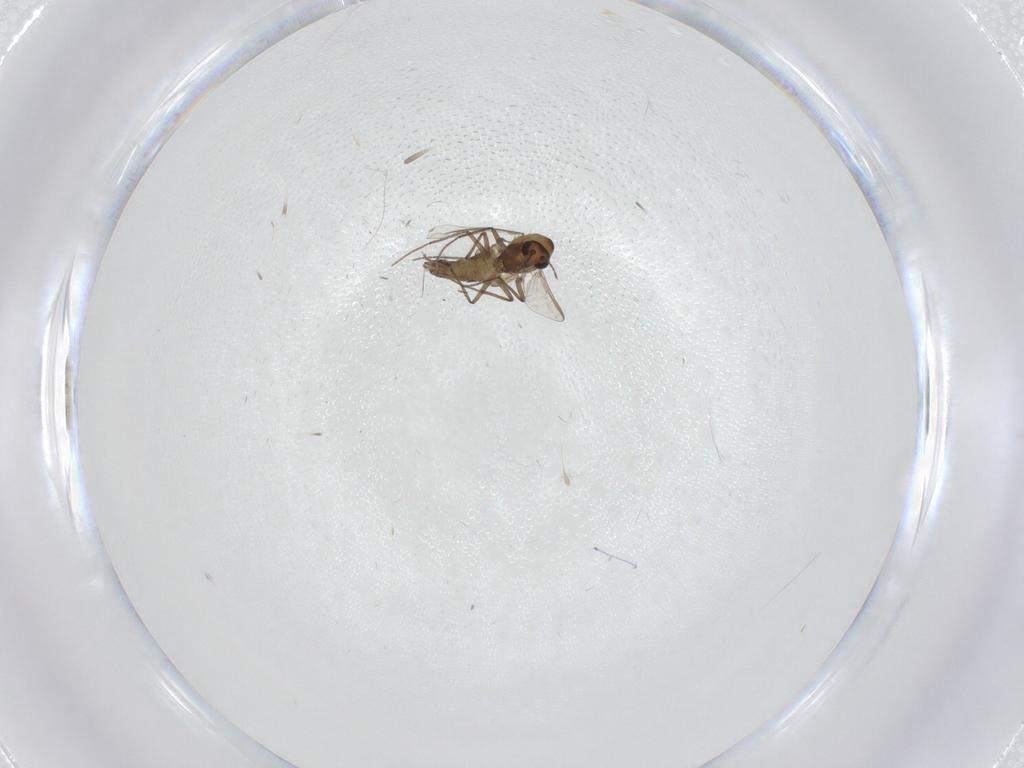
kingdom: Animalia
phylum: Arthropoda
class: Insecta
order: Diptera
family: Chironomidae
